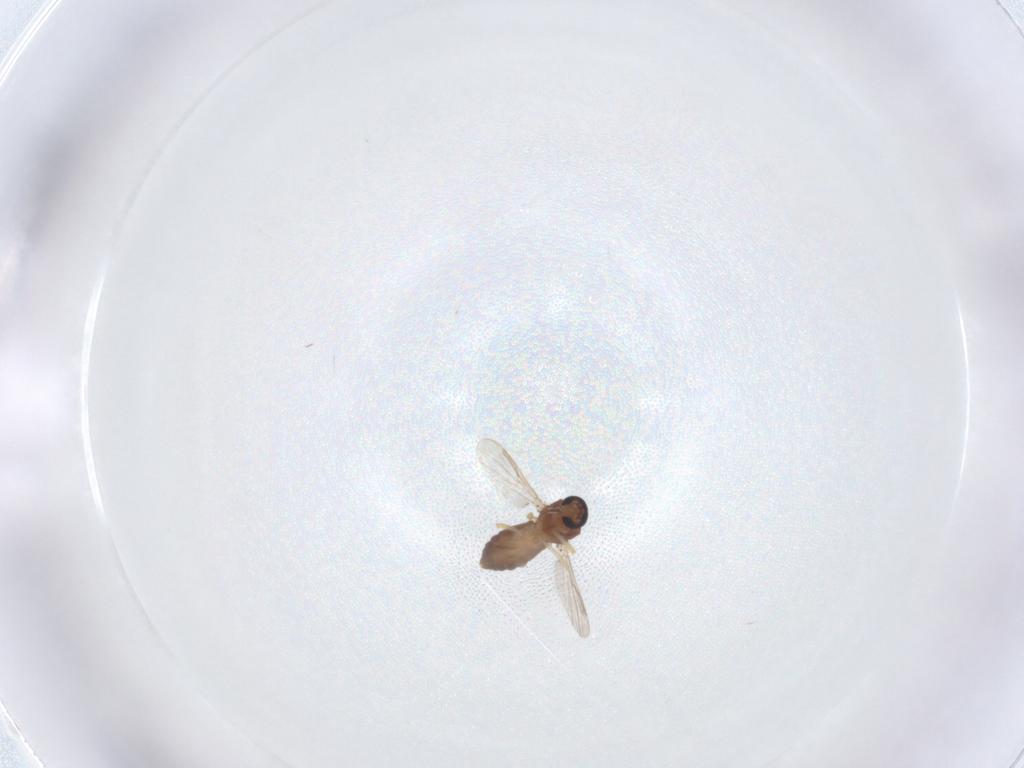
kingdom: Animalia
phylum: Arthropoda
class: Insecta
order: Diptera
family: Ceratopogonidae
